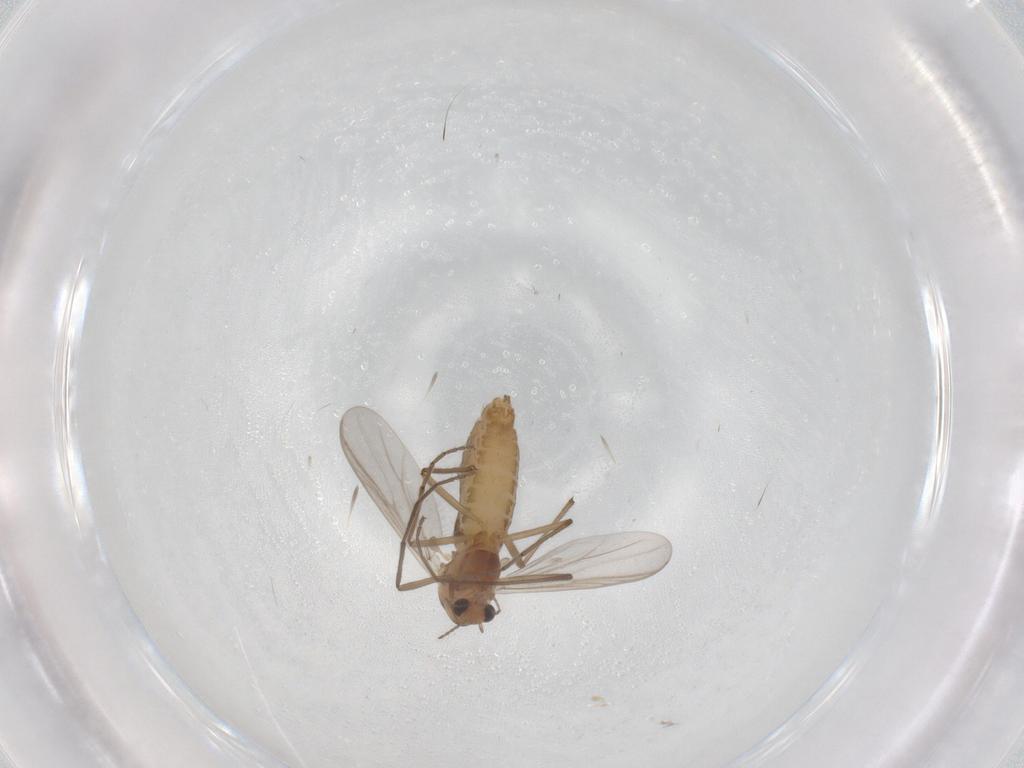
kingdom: Animalia
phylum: Arthropoda
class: Insecta
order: Diptera
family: Chironomidae
